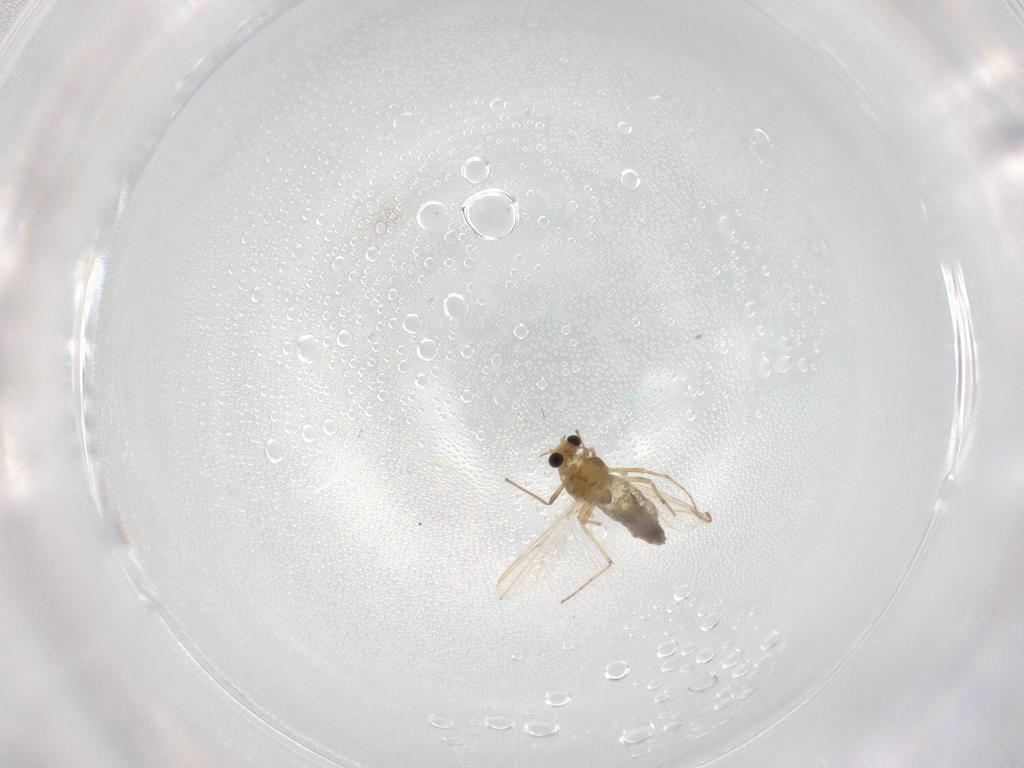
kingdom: Animalia
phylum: Arthropoda
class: Insecta
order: Diptera
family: Chironomidae
